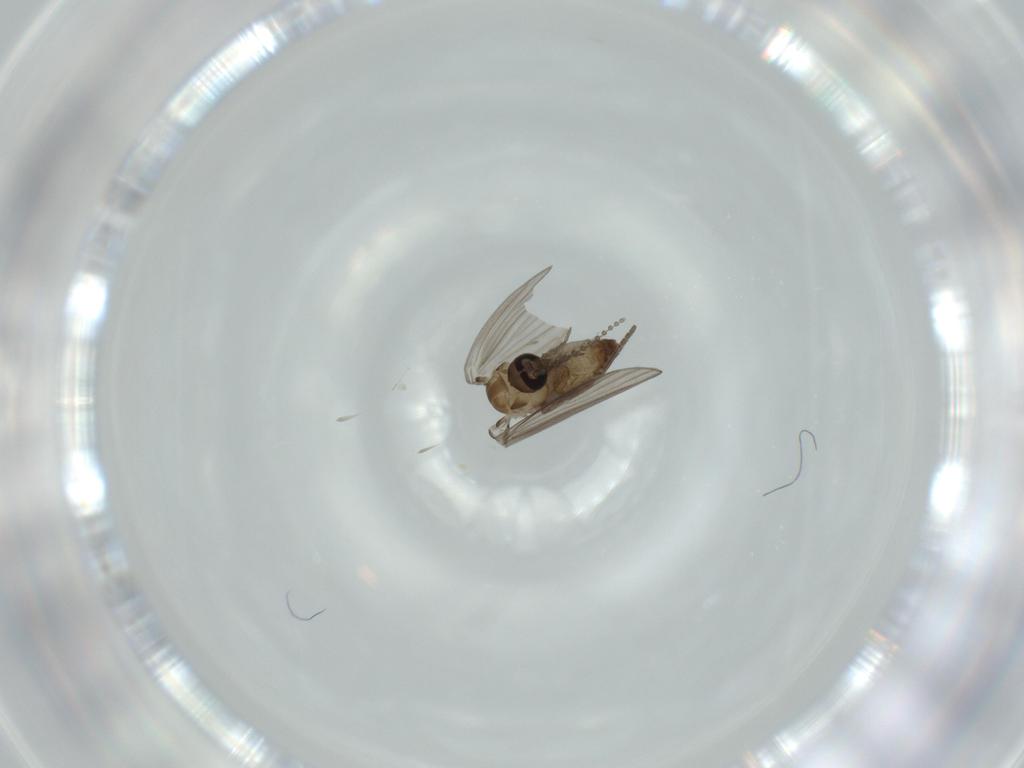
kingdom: Animalia
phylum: Arthropoda
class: Insecta
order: Diptera
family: Psychodidae
